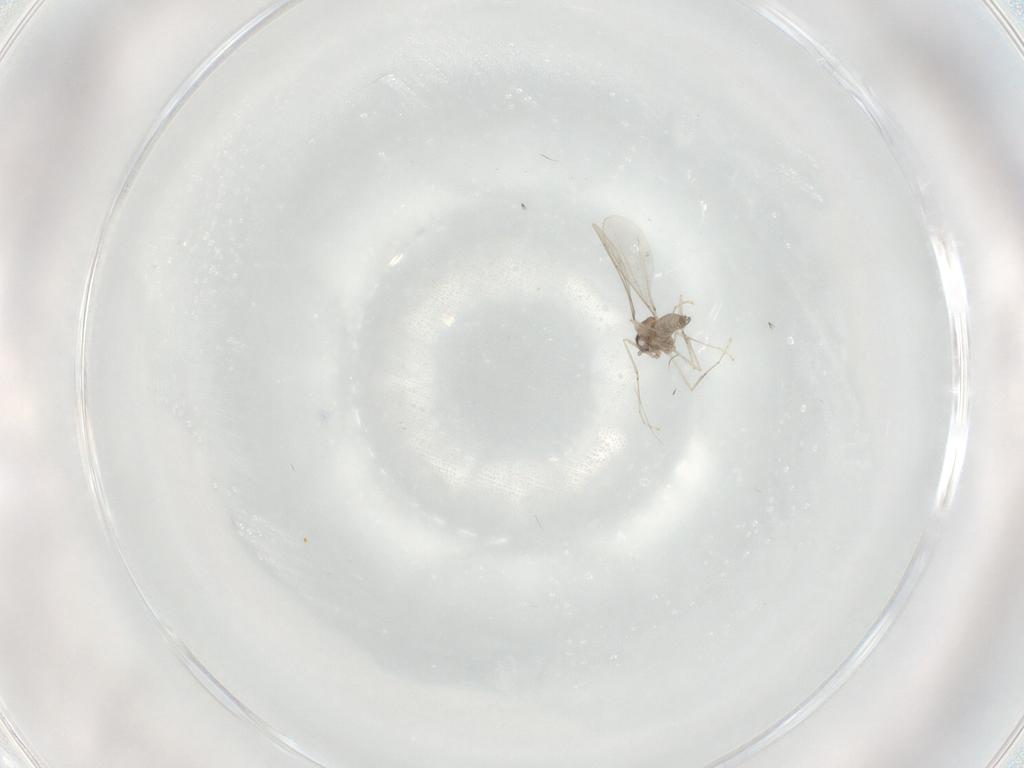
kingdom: Animalia
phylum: Arthropoda
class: Insecta
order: Diptera
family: Cecidomyiidae
